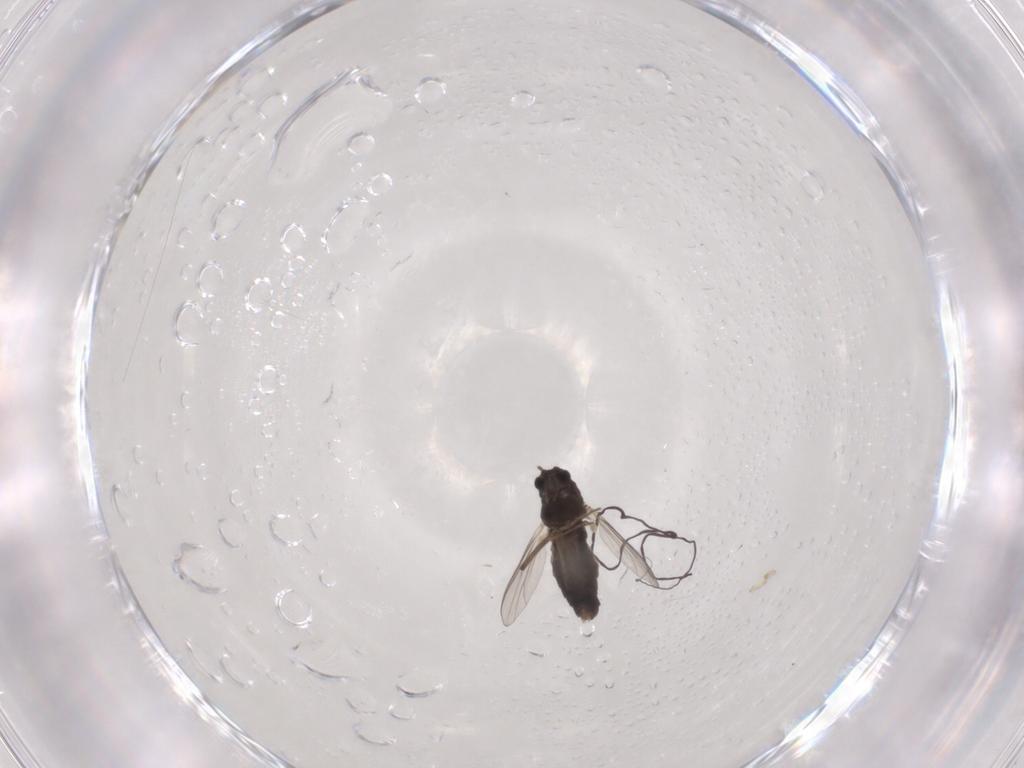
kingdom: Animalia
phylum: Arthropoda
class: Insecta
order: Diptera
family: Chironomidae
